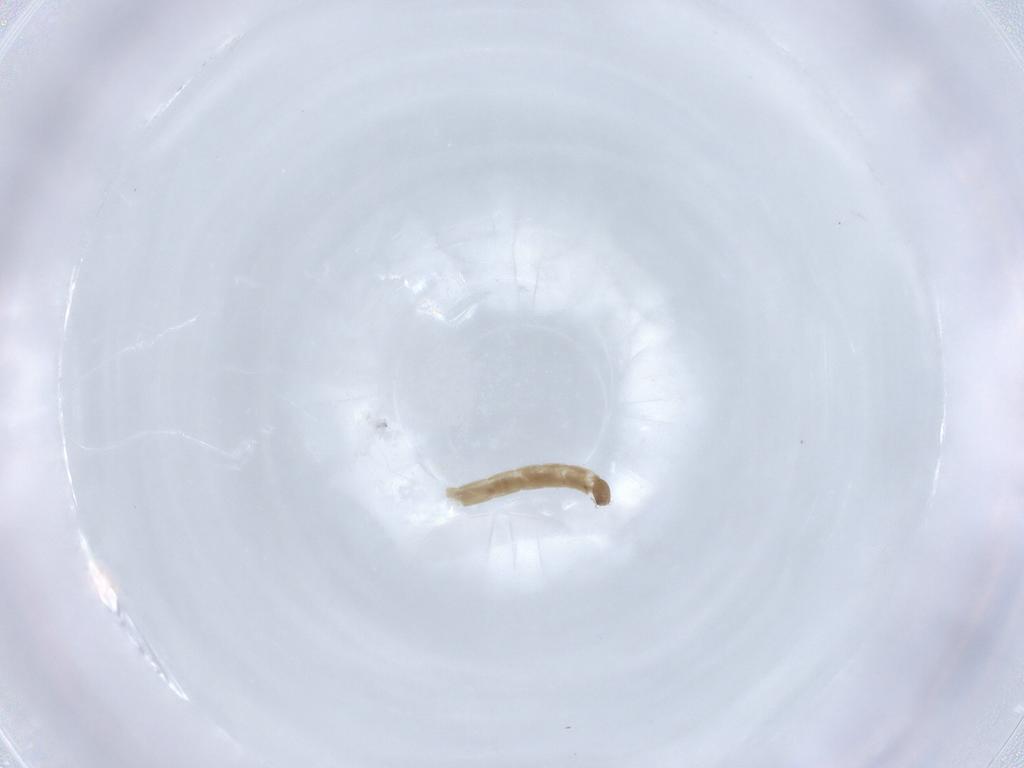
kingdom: Animalia
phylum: Arthropoda
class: Insecta
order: Diptera
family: Chironomidae
